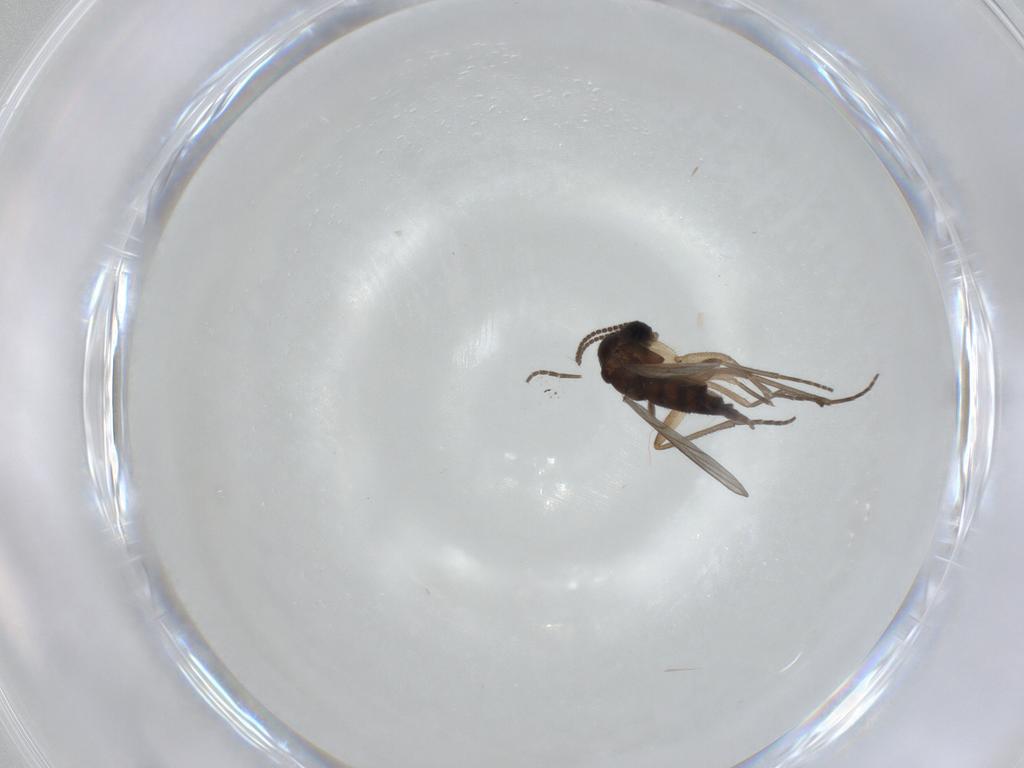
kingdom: Animalia
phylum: Arthropoda
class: Insecta
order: Diptera
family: Sciaridae
